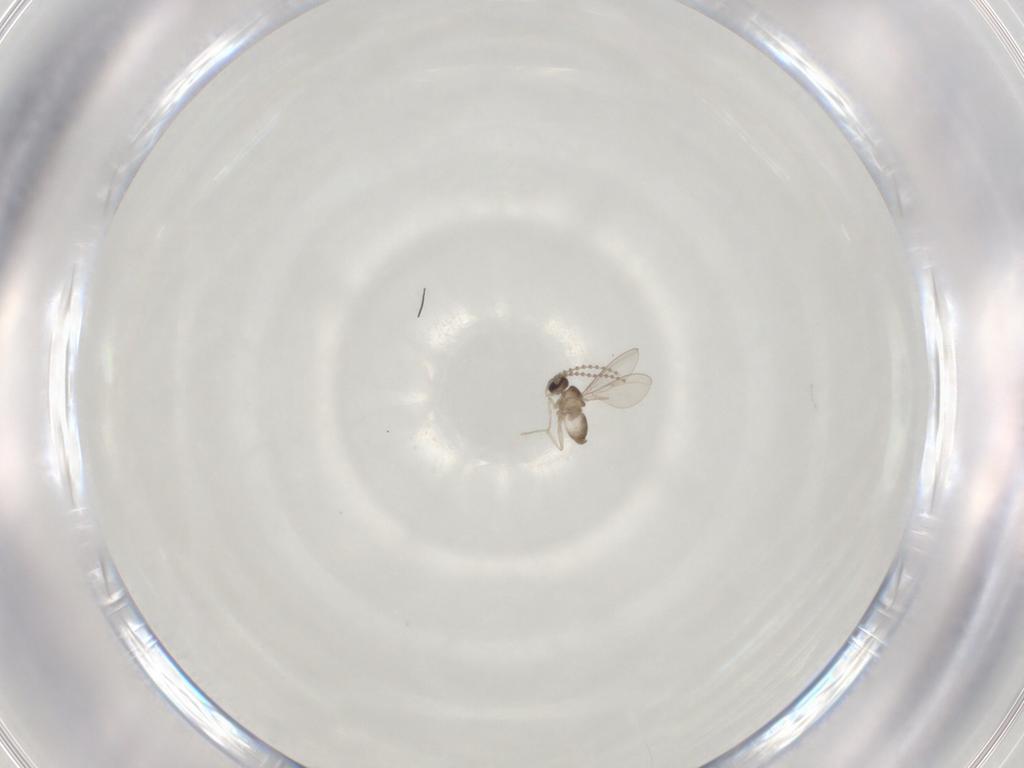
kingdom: Animalia
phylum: Arthropoda
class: Insecta
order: Diptera
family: Cecidomyiidae
